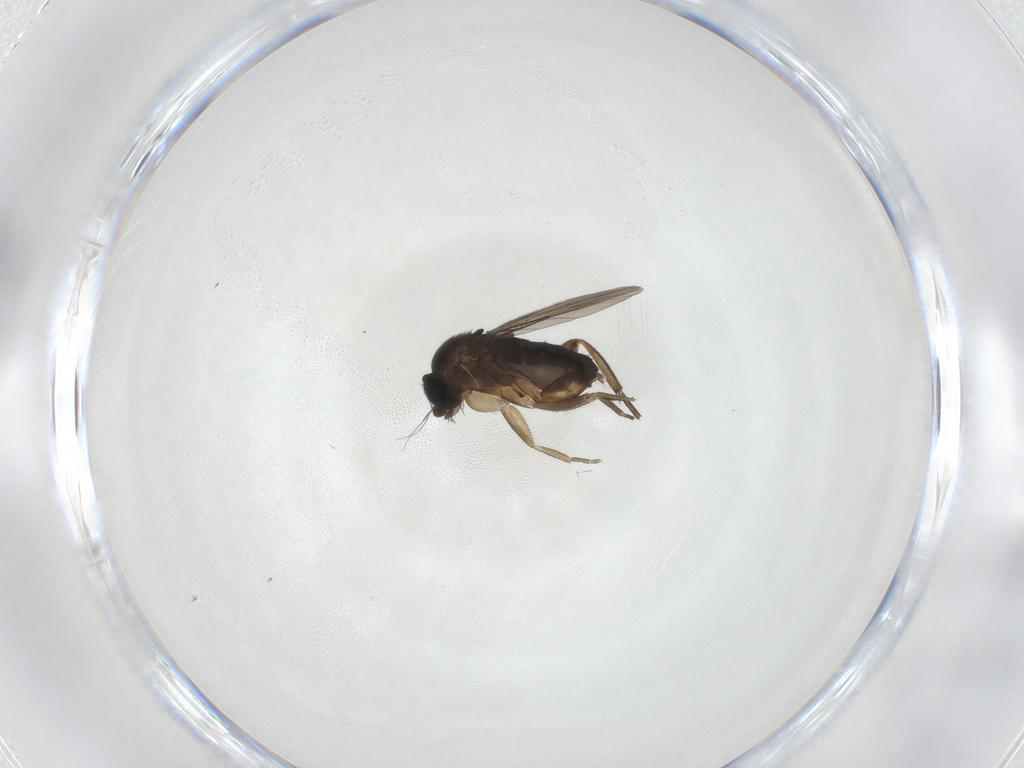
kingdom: Animalia
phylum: Arthropoda
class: Insecta
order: Diptera
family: Phoridae
